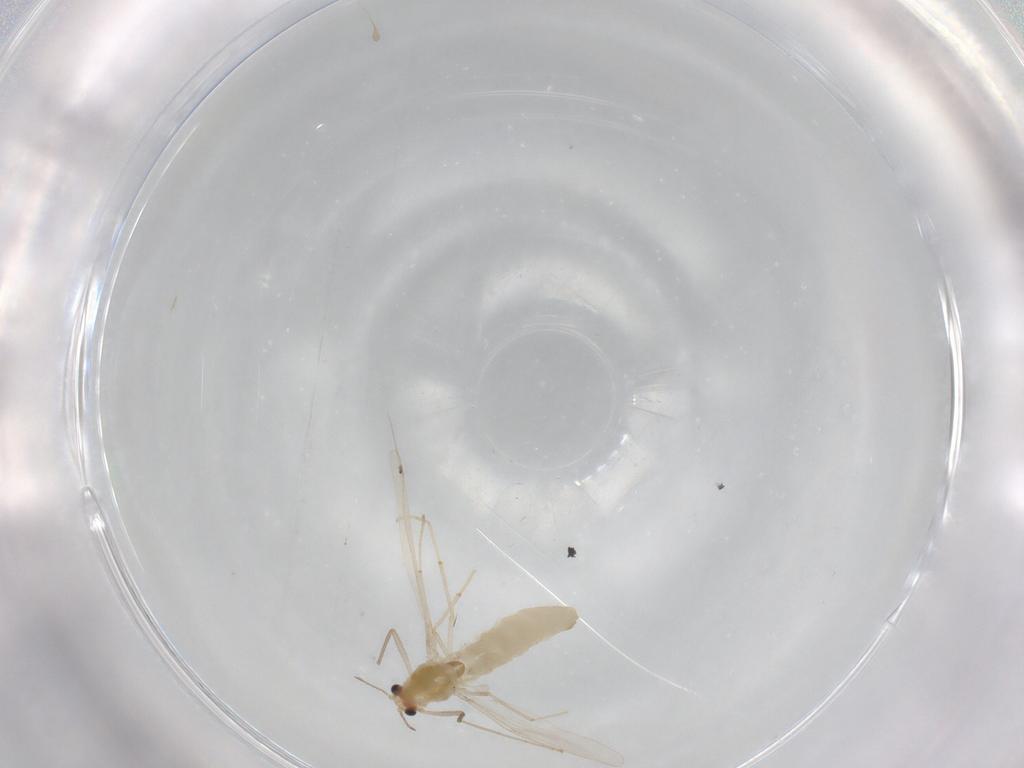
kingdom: Animalia
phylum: Arthropoda
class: Insecta
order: Diptera
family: Chironomidae
